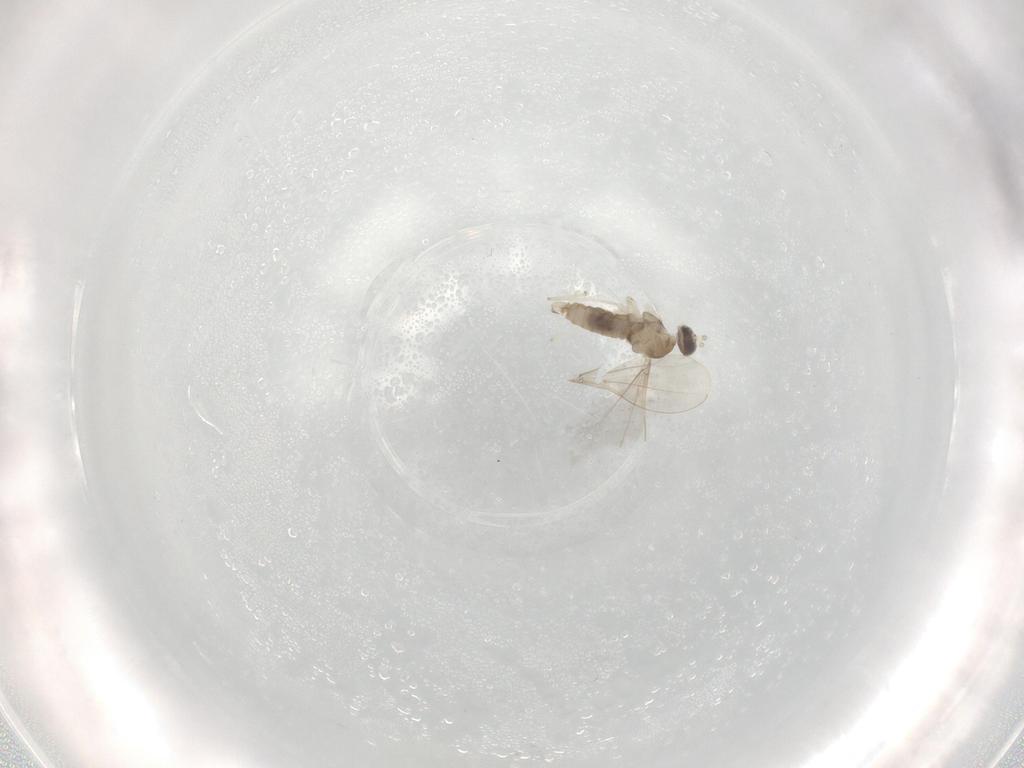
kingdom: Animalia
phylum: Arthropoda
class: Insecta
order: Diptera
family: Cecidomyiidae
